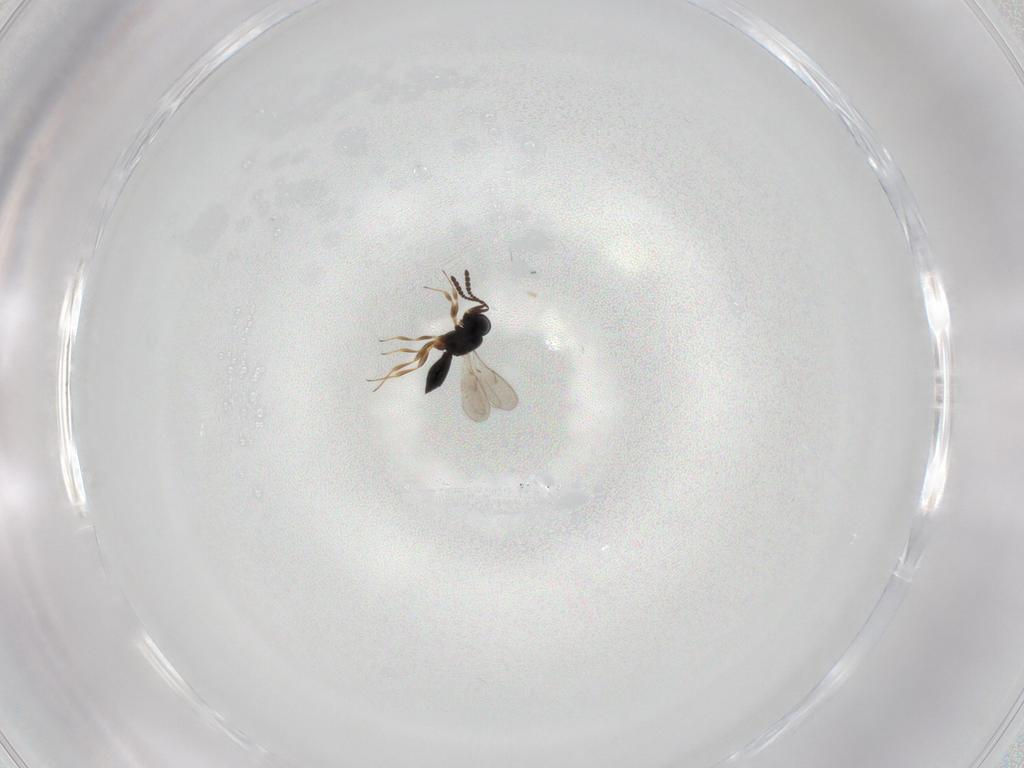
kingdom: Animalia
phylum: Arthropoda
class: Insecta
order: Hymenoptera
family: Scelionidae
